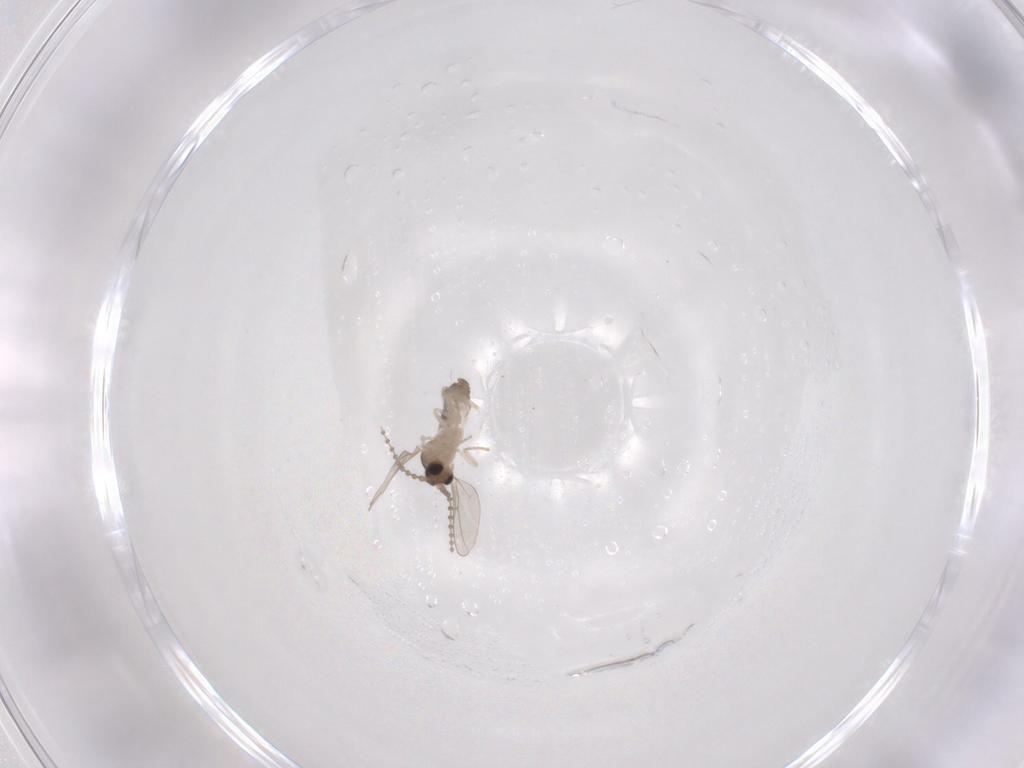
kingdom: Animalia
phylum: Arthropoda
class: Insecta
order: Diptera
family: Cecidomyiidae
